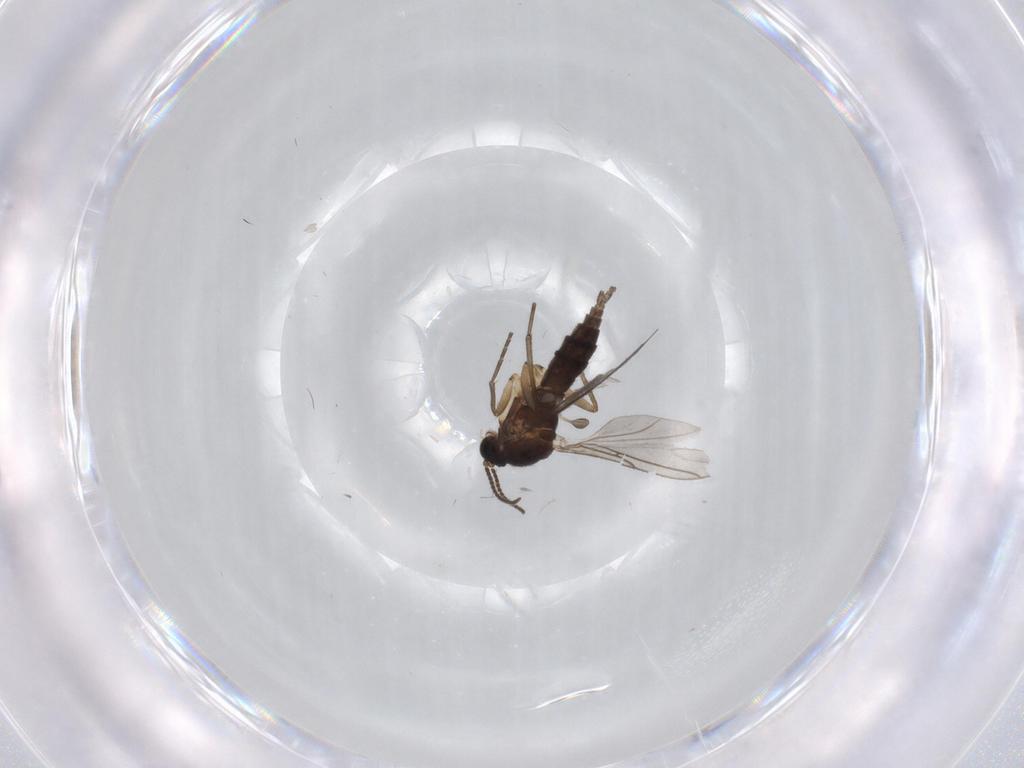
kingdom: Animalia
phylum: Arthropoda
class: Insecta
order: Diptera
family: Sciaridae
